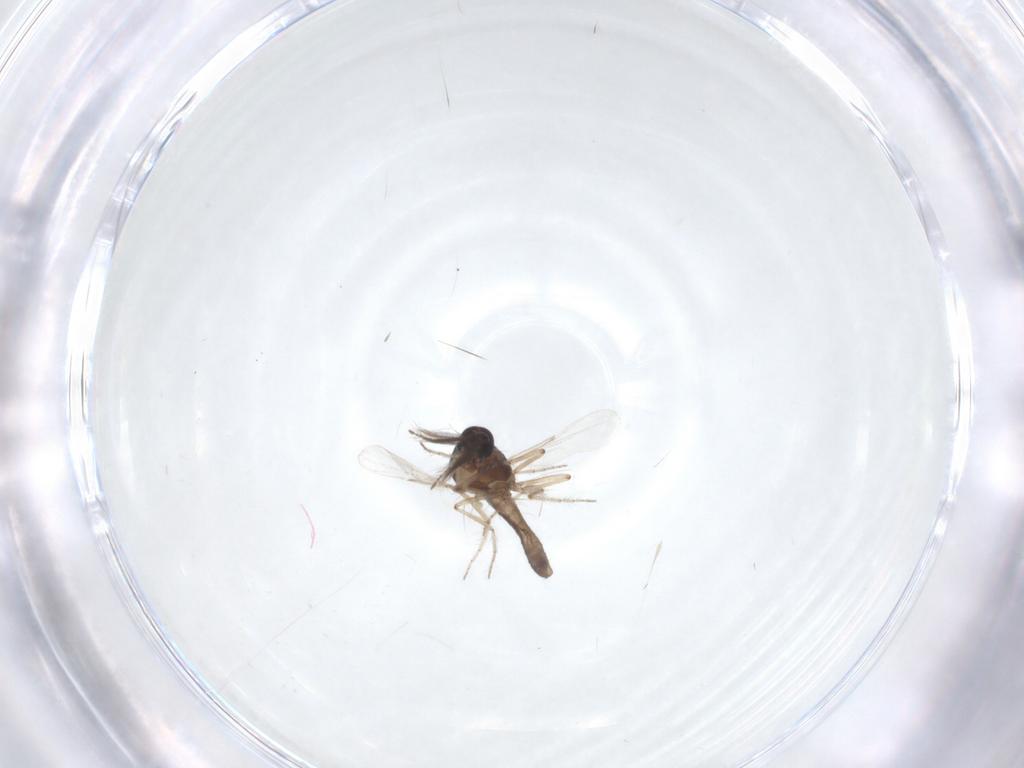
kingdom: Animalia
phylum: Arthropoda
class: Insecta
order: Diptera
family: Ceratopogonidae
